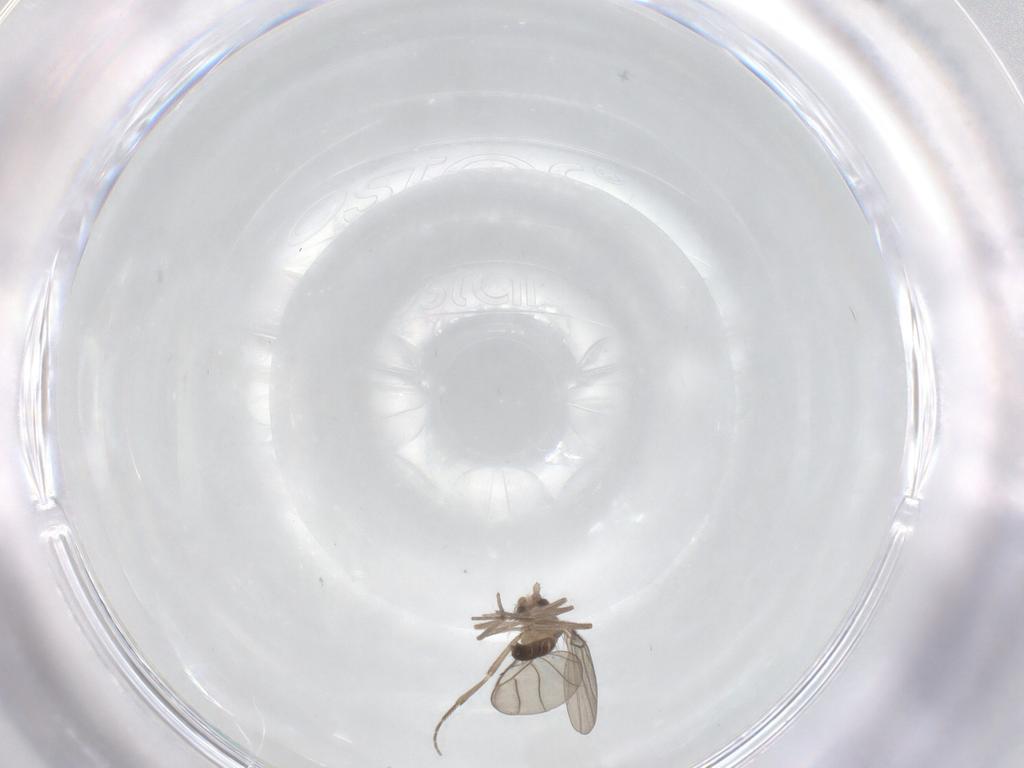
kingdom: Animalia
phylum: Arthropoda
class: Insecta
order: Diptera
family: Phoridae
